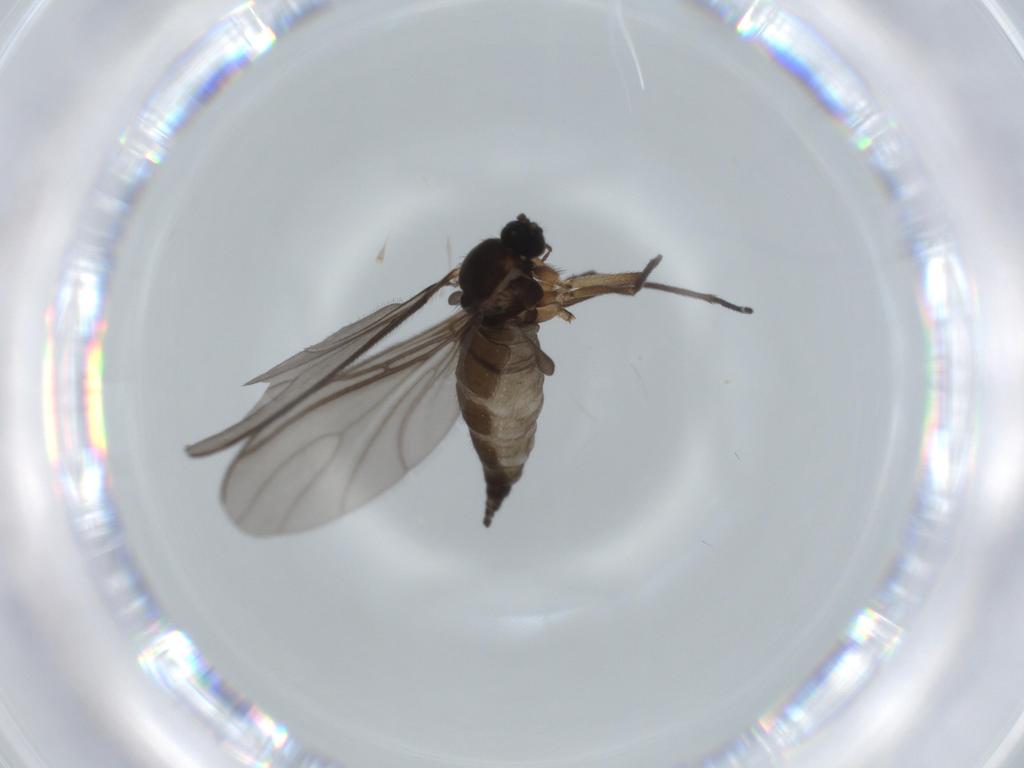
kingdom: Animalia
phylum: Arthropoda
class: Insecta
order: Diptera
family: Sciaridae
